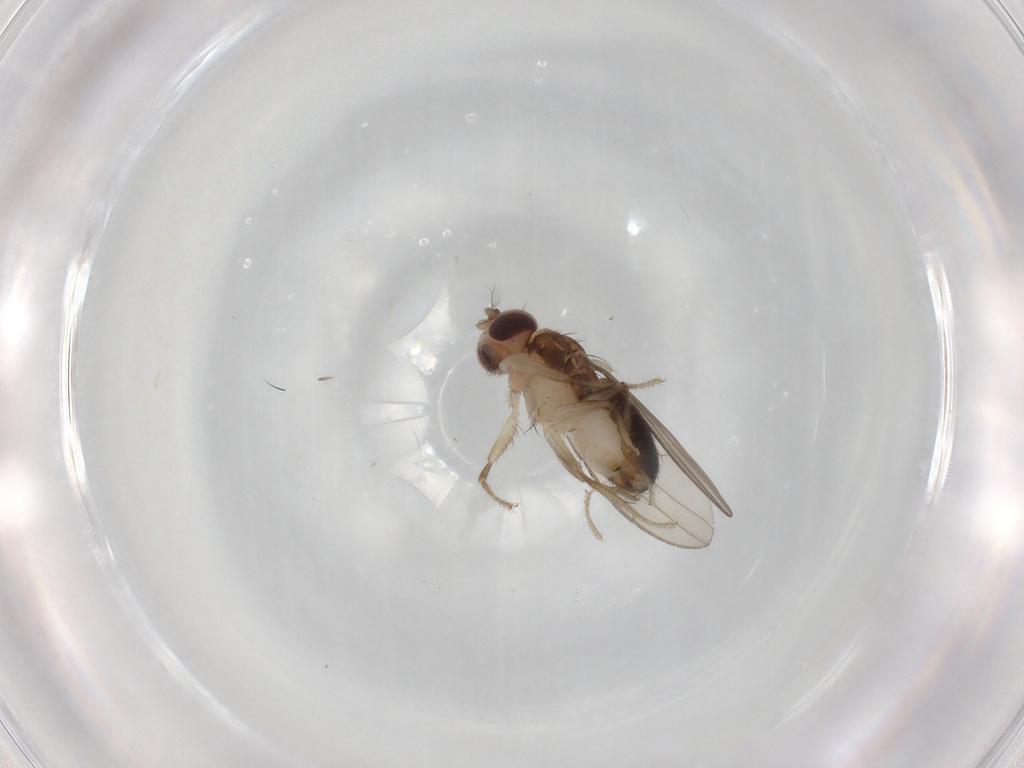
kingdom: Animalia
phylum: Arthropoda
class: Insecta
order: Diptera
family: Drosophilidae
